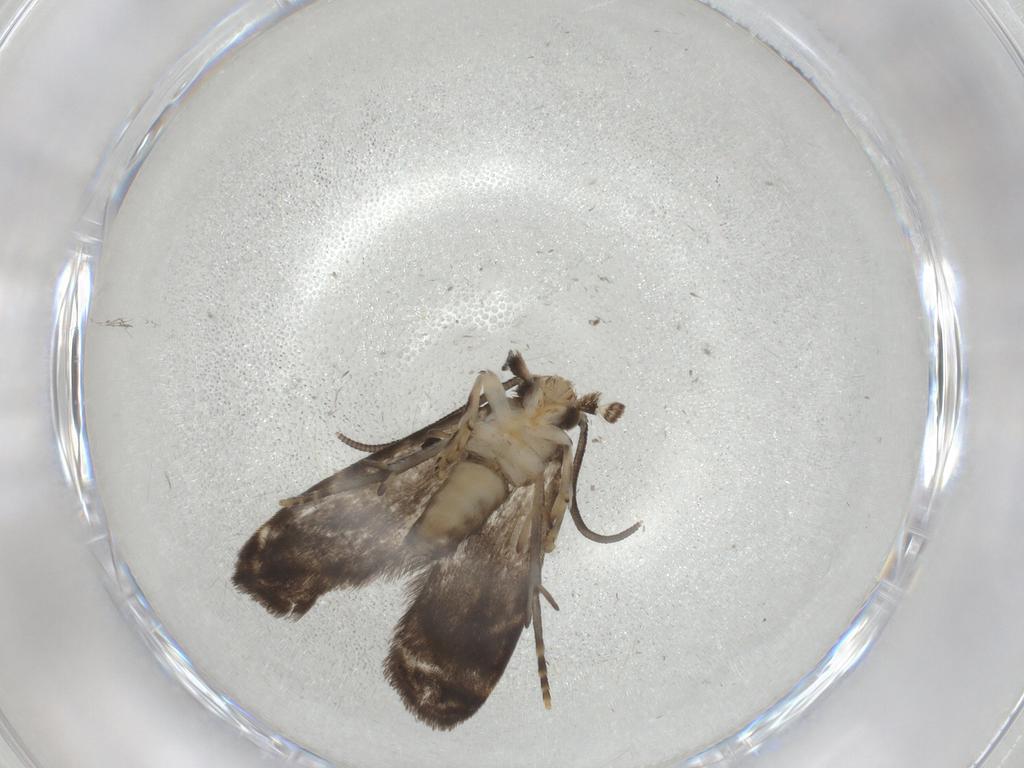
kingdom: Animalia
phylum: Arthropoda
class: Insecta
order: Lepidoptera
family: Dryadaulidae
